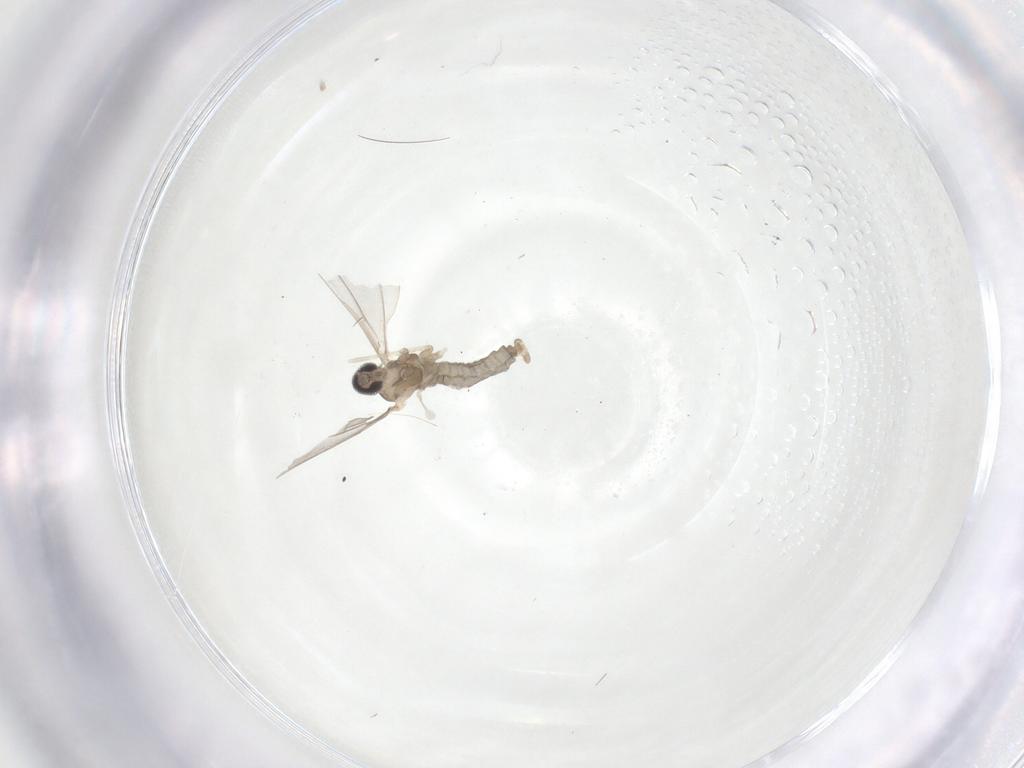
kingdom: Animalia
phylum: Arthropoda
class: Insecta
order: Diptera
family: Cecidomyiidae
